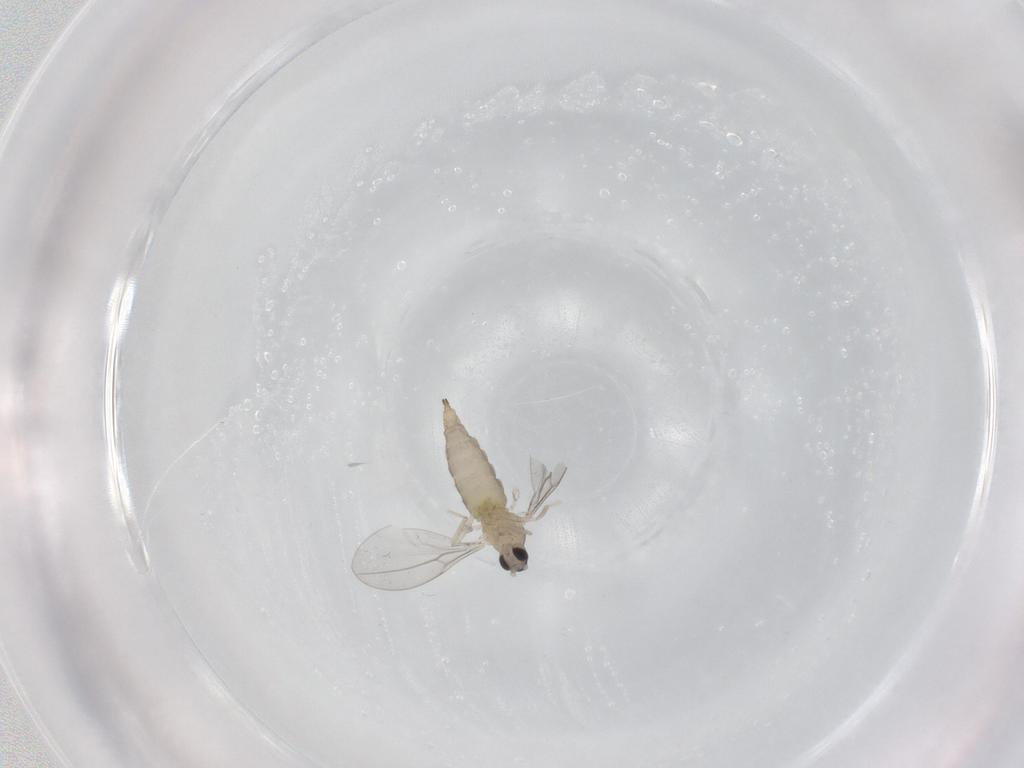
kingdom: Animalia
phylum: Arthropoda
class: Insecta
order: Diptera
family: Cecidomyiidae
